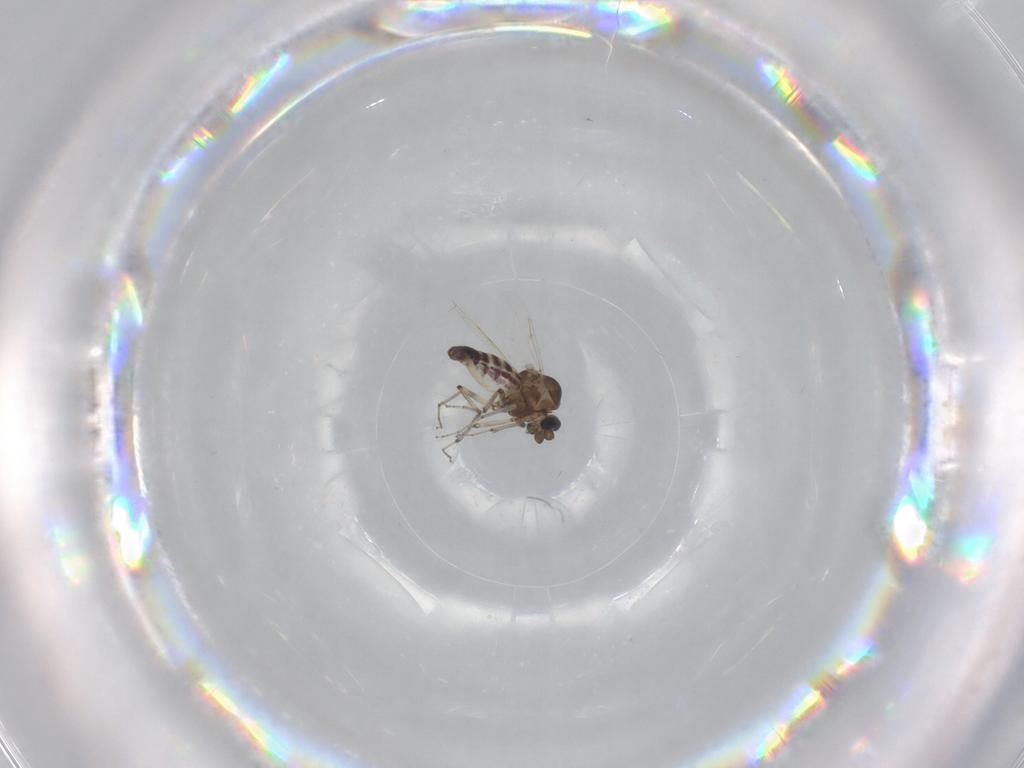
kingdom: Animalia
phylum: Arthropoda
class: Insecta
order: Diptera
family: Ceratopogonidae
